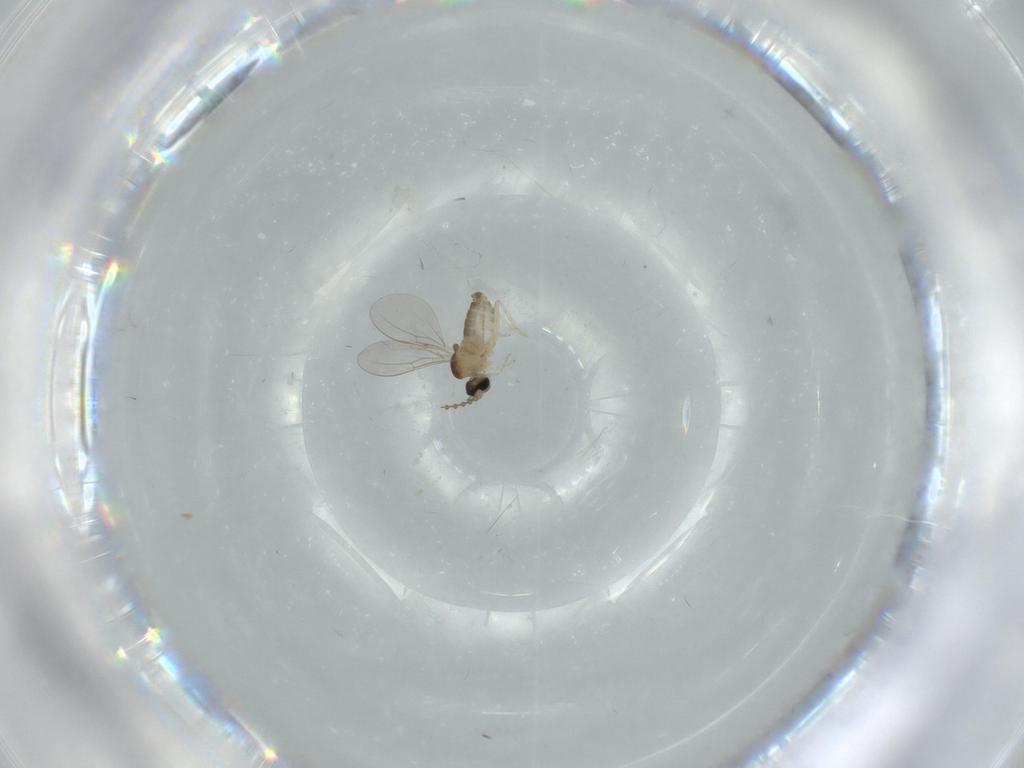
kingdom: Animalia
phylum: Arthropoda
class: Insecta
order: Diptera
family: Cecidomyiidae
